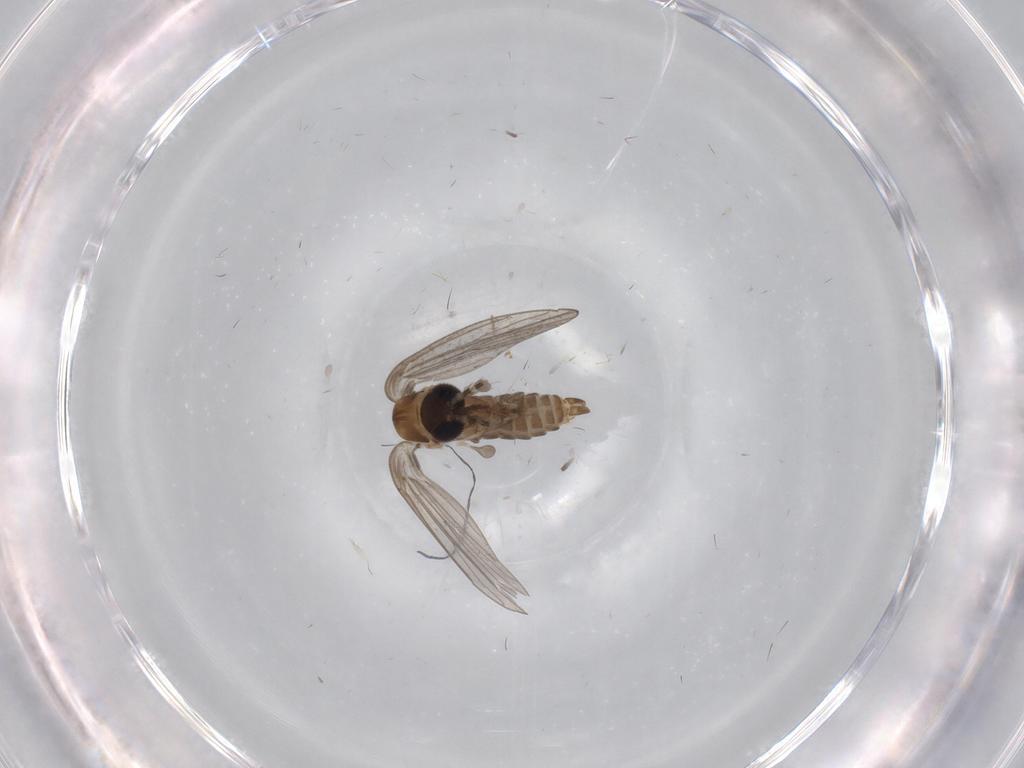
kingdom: Animalia
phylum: Arthropoda
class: Insecta
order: Diptera
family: Psychodidae
